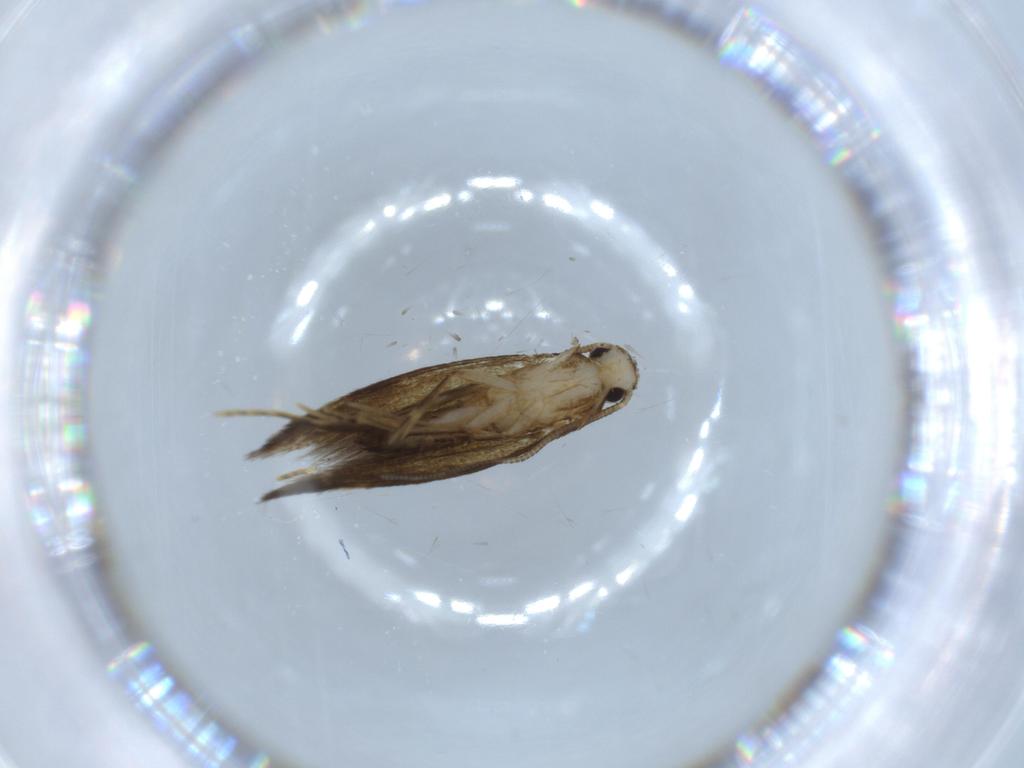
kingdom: Animalia
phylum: Arthropoda
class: Insecta
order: Lepidoptera
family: Tineidae
